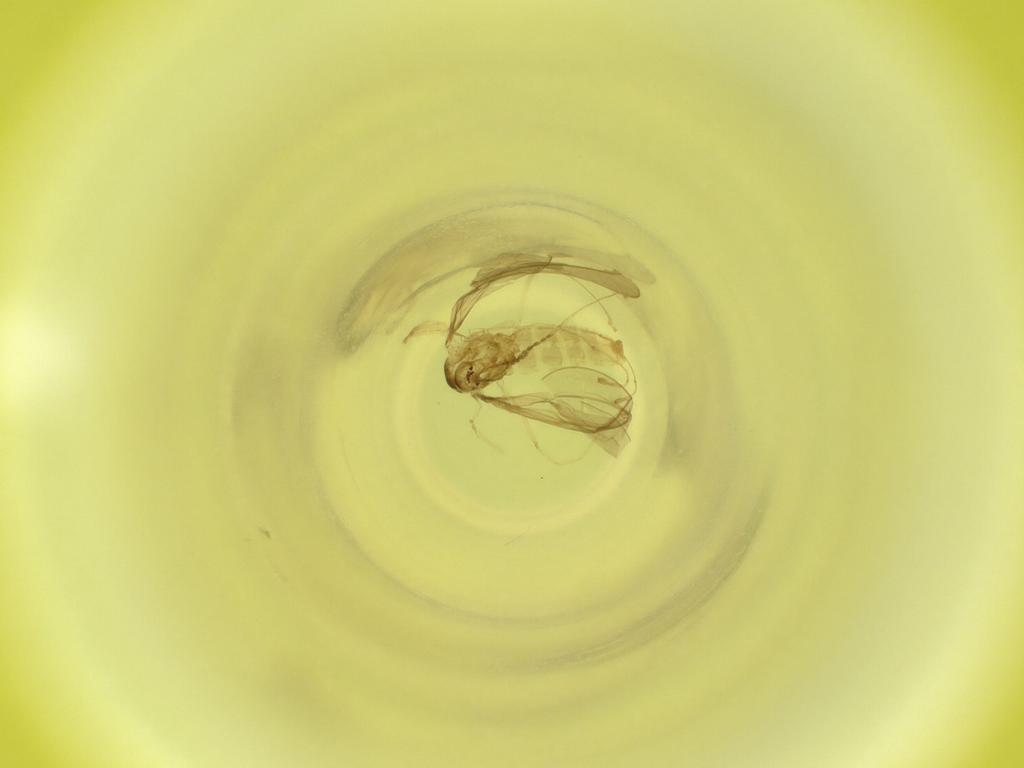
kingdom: Animalia
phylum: Arthropoda
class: Insecta
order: Diptera
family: Cecidomyiidae
